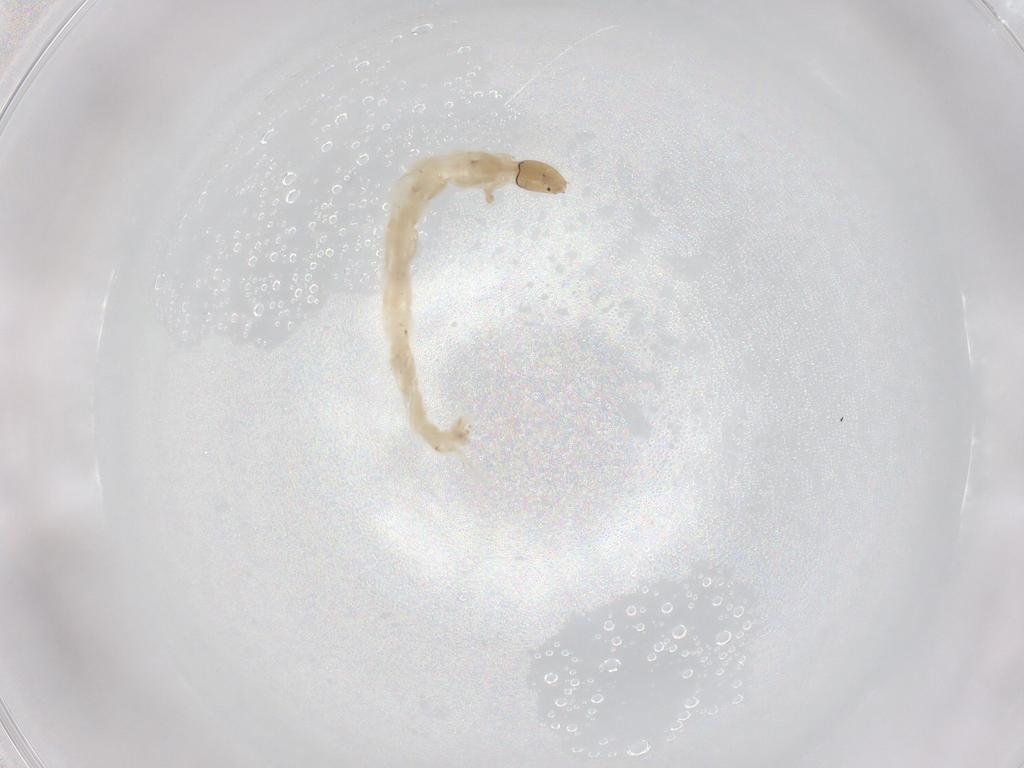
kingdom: Animalia
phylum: Arthropoda
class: Insecta
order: Diptera
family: Chironomidae
